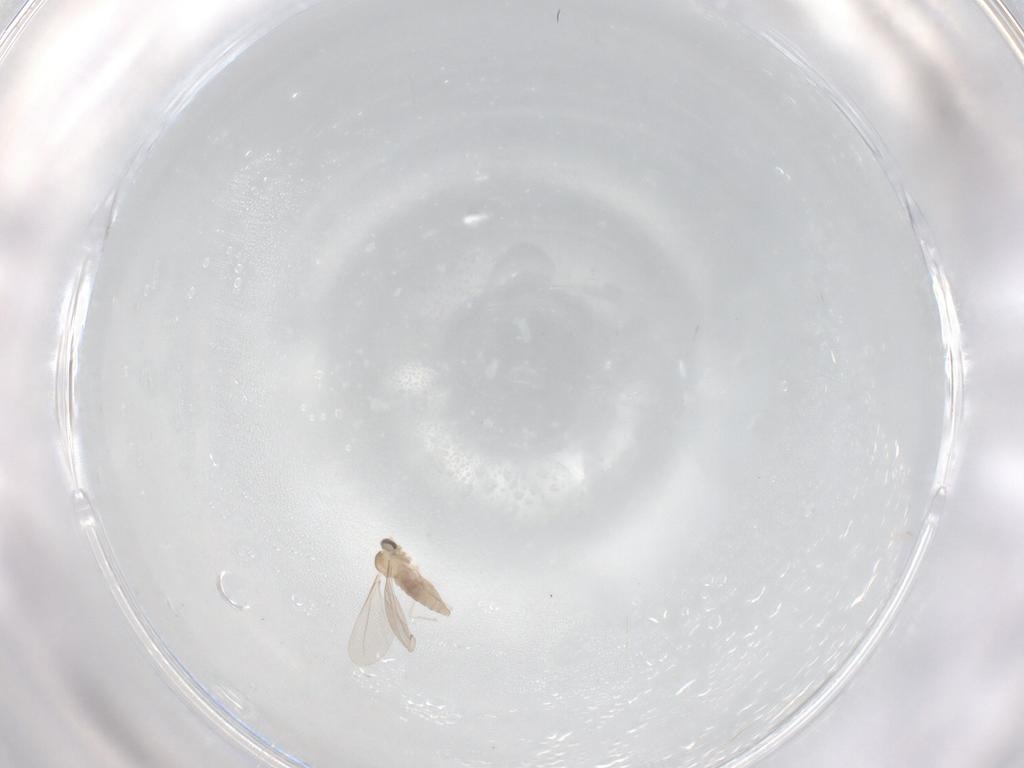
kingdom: Animalia
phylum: Arthropoda
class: Insecta
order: Diptera
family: Cecidomyiidae
